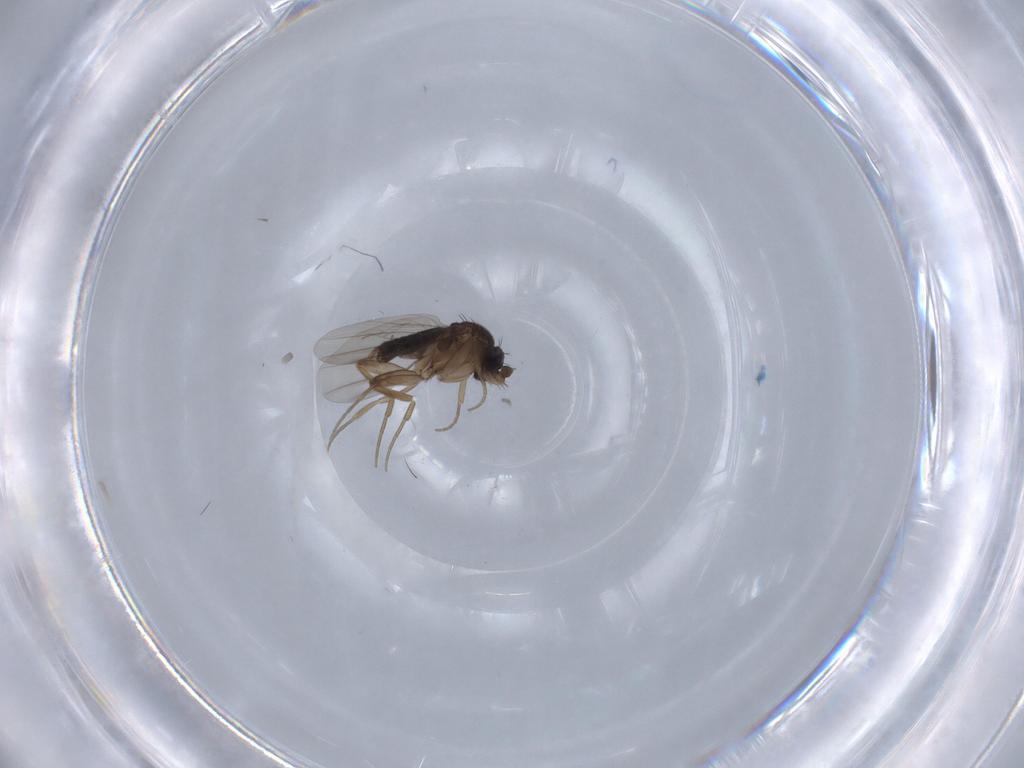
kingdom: Animalia
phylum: Arthropoda
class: Insecta
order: Diptera
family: Phoridae
